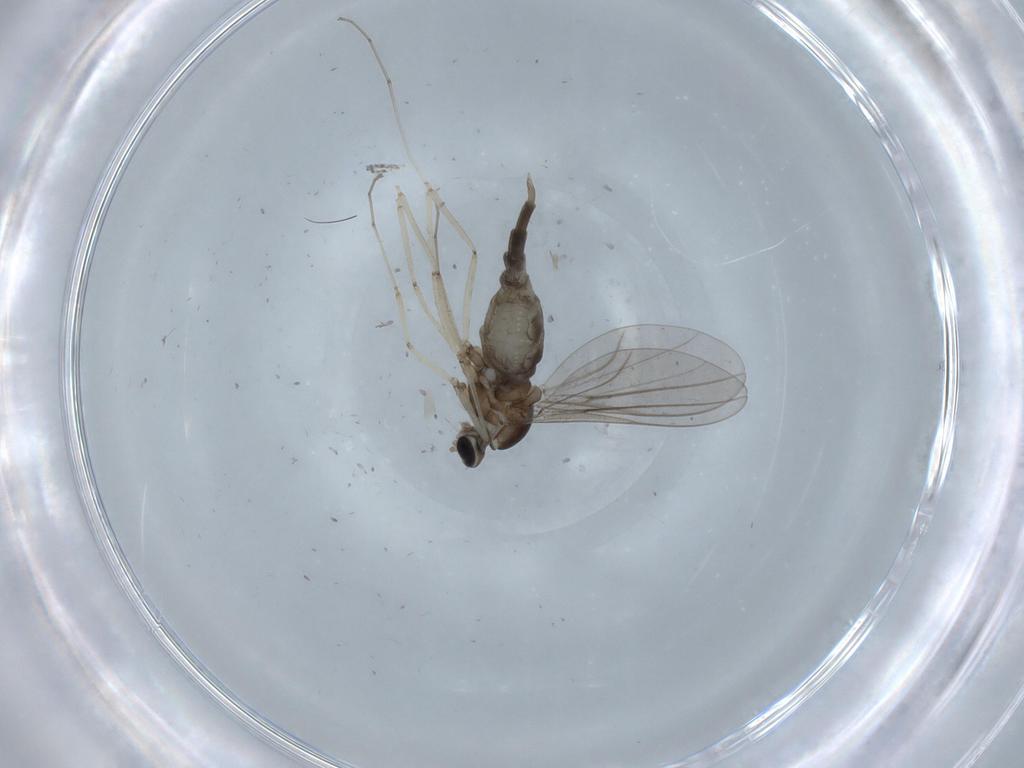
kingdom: Animalia
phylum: Arthropoda
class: Insecta
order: Diptera
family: Cecidomyiidae
